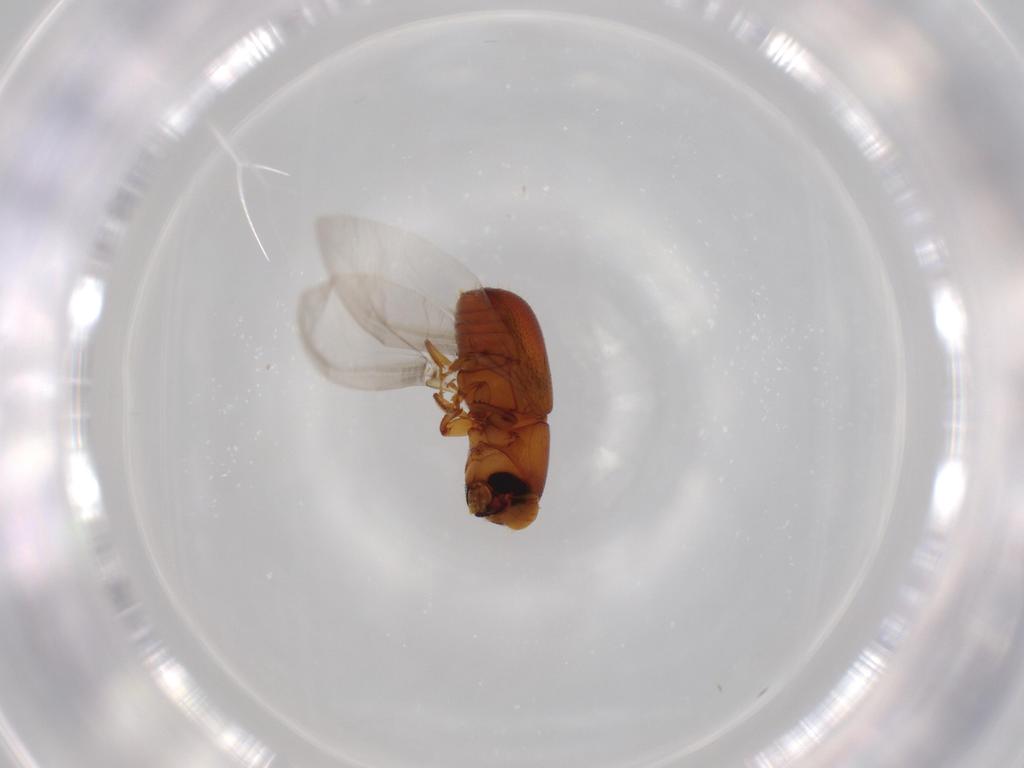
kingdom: Animalia
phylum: Arthropoda
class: Insecta
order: Coleoptera
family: Curculionidae
